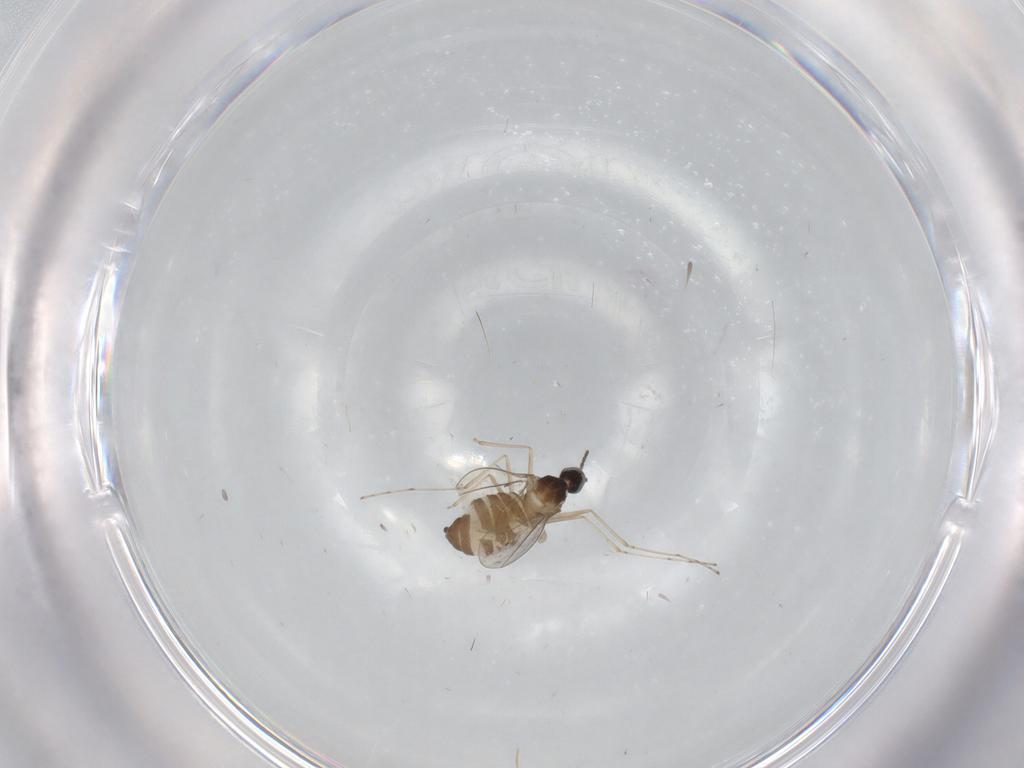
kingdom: Animalia
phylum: Arthropoda
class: Insecta
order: Diptera
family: Cecidomyiidae
